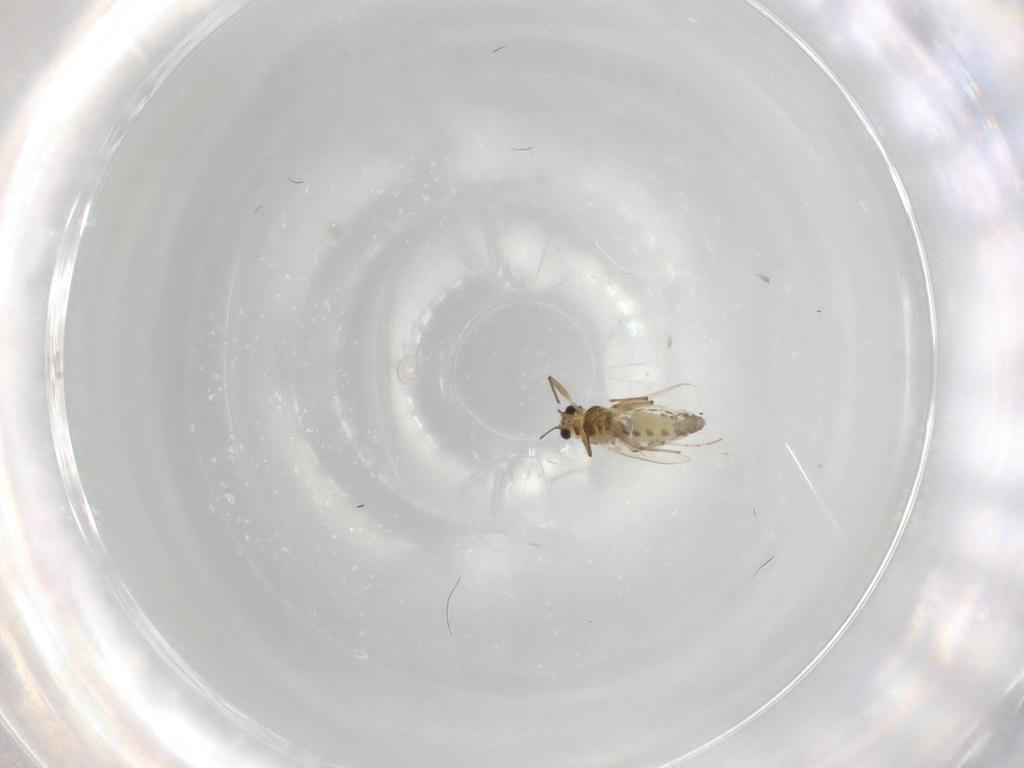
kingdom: Animalia
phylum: Arthropoda
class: Insecta
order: Diptera
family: Chironomidae
